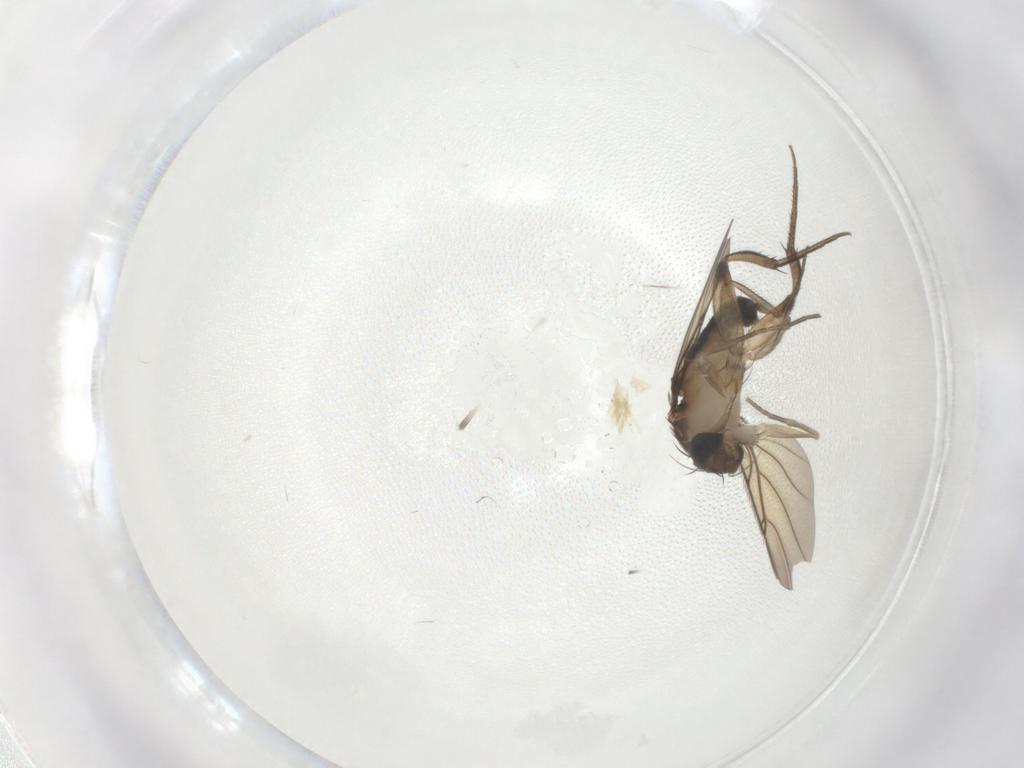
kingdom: Animalia
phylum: Arthropoda
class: Insecta
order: Diptera
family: Phoridae
